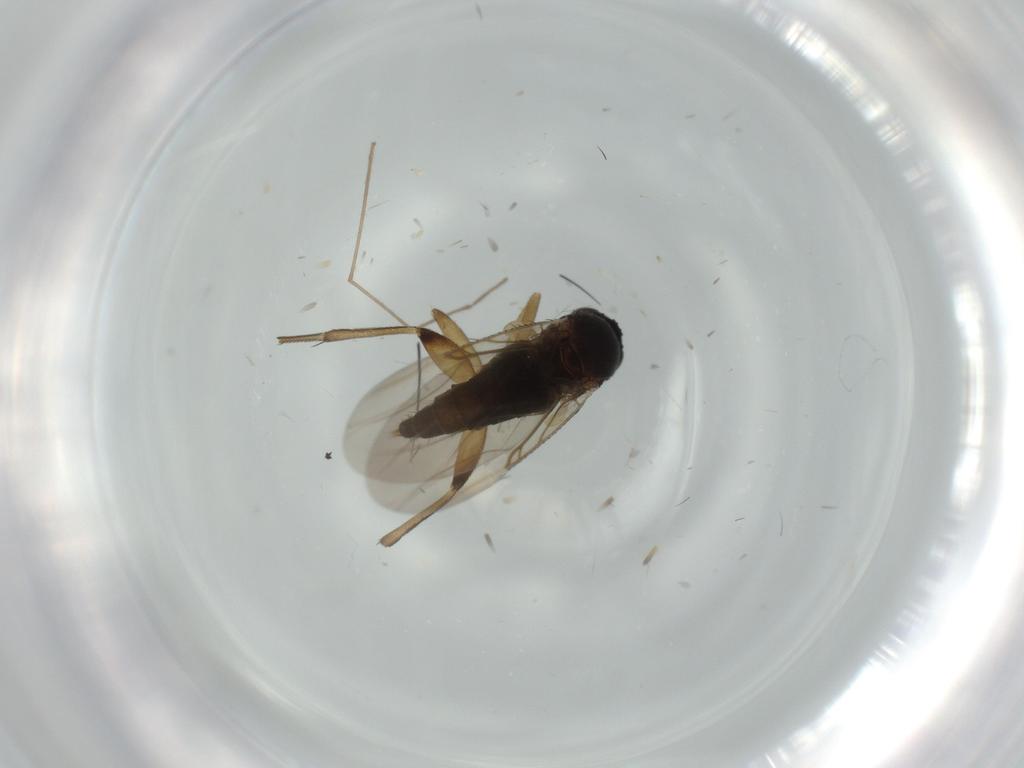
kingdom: Animalia
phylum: Arthropoda
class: Insecta
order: Diptera
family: Phoridae
